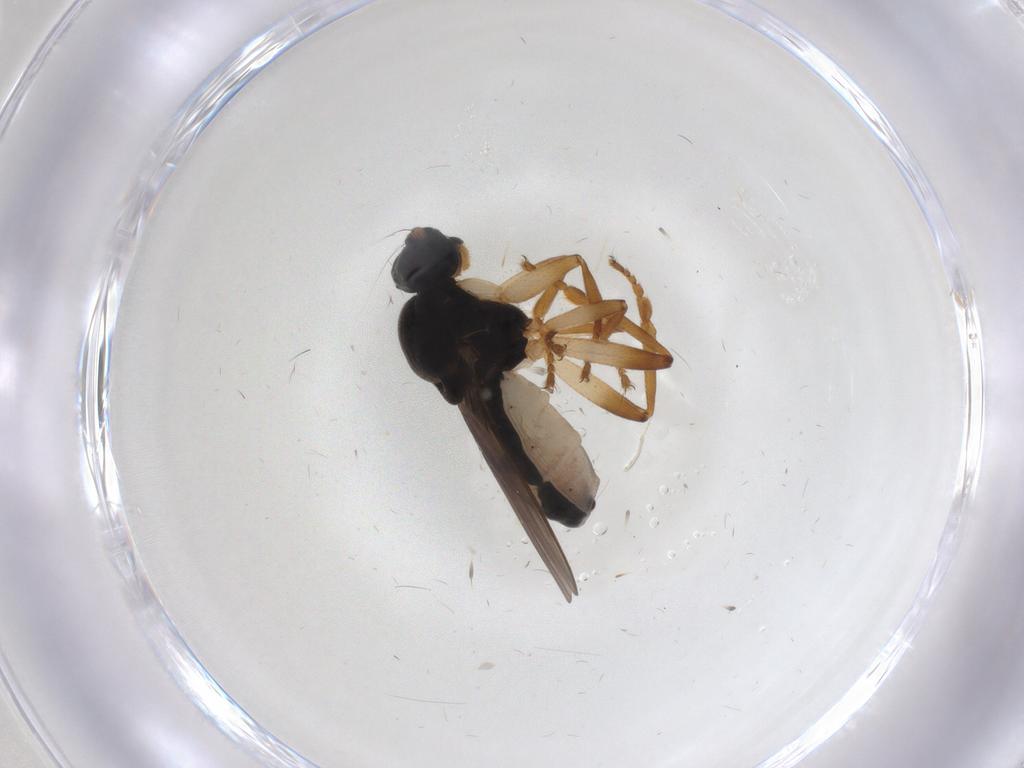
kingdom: Animalia
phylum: Arthropoda
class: Insecta
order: Diptera
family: Sphaeroceridae
